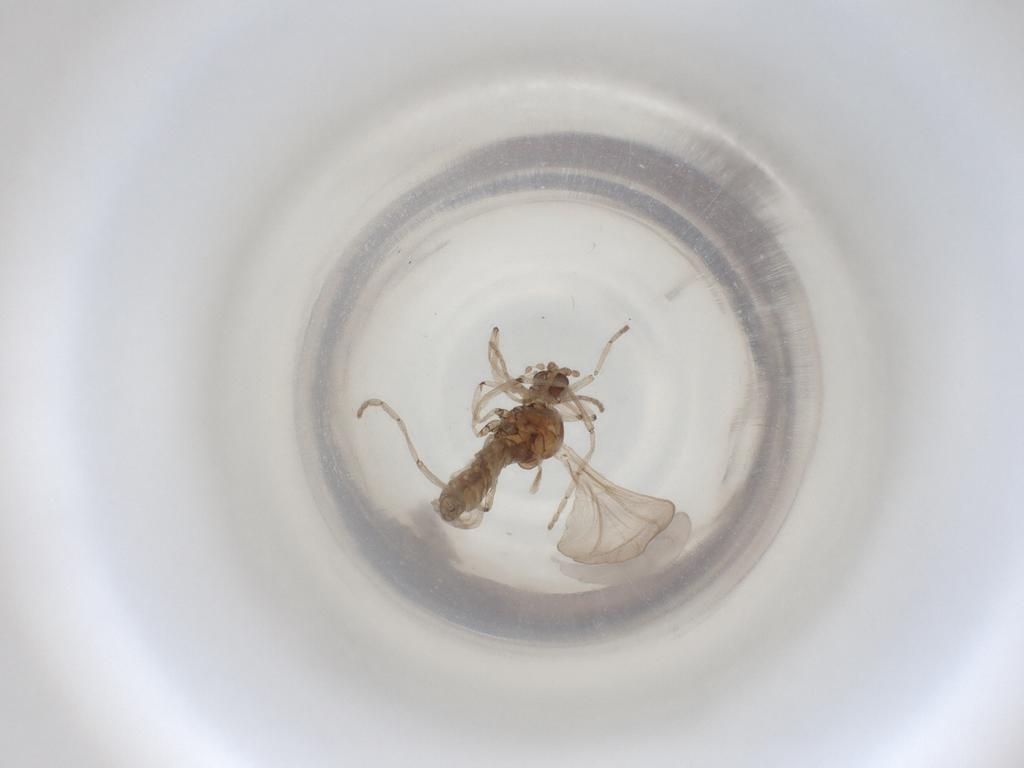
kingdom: Animalia
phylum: Arthropoda
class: Insecta
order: Diptera
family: Cecidomyiidae
